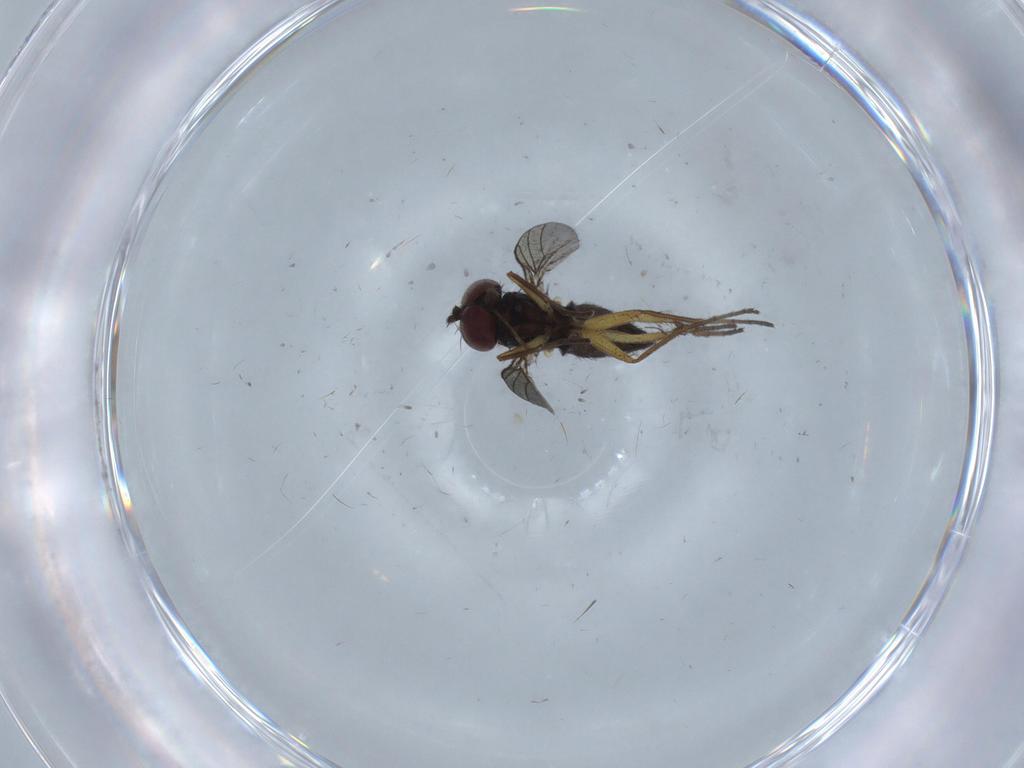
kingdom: Animalia
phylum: Arthropoda
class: Insecta
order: Diptera
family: Dolichopodidae
